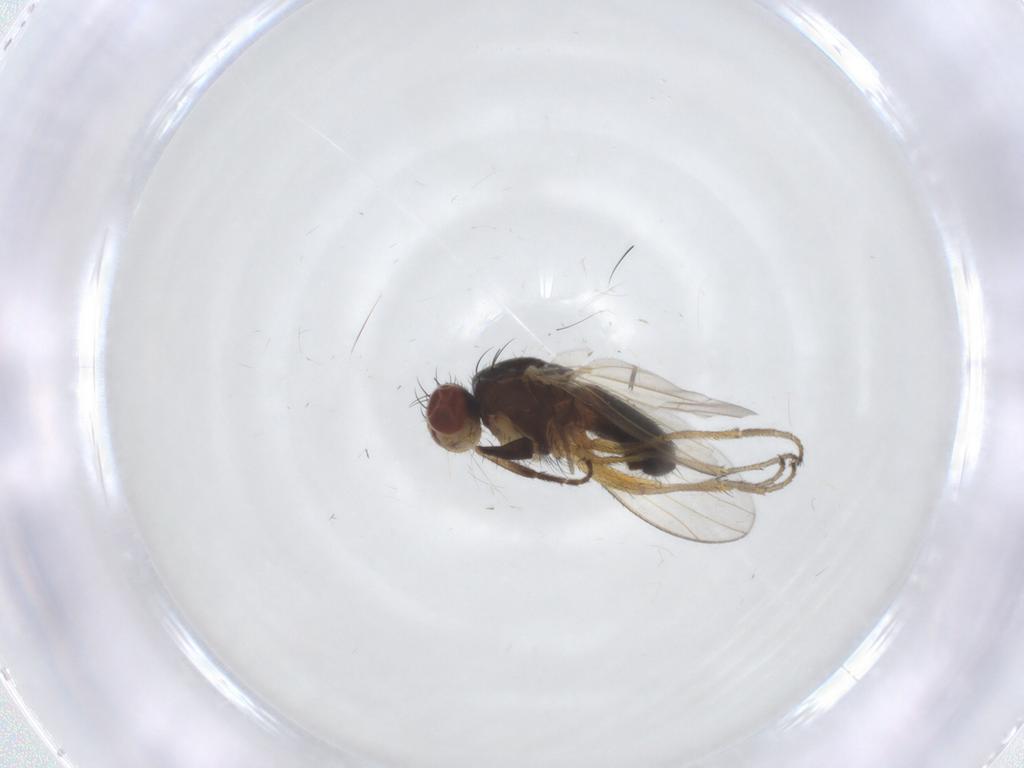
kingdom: Animalia
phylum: Arthropoda
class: Insecta
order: Diptera
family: Heleomyzidae
